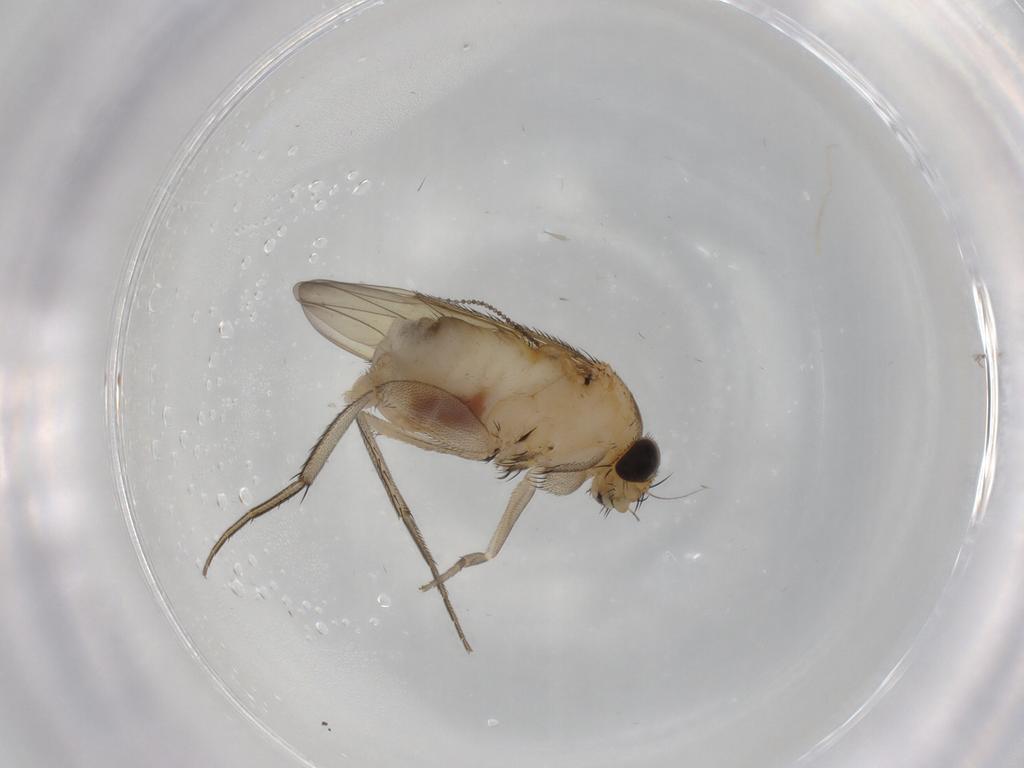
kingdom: Animalia
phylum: Arthropoda
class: Insecta
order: Diptera
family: Phoridae
